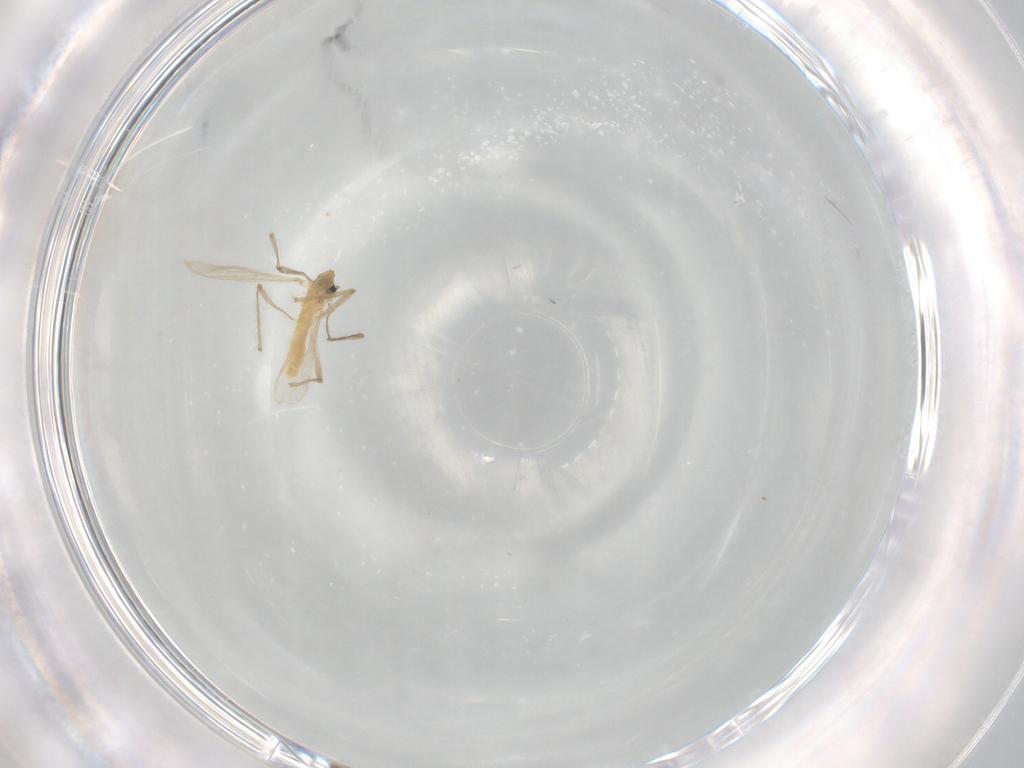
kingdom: Animalia
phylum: Arthropoda
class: Insecta
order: Diptera
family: Chironomidae
